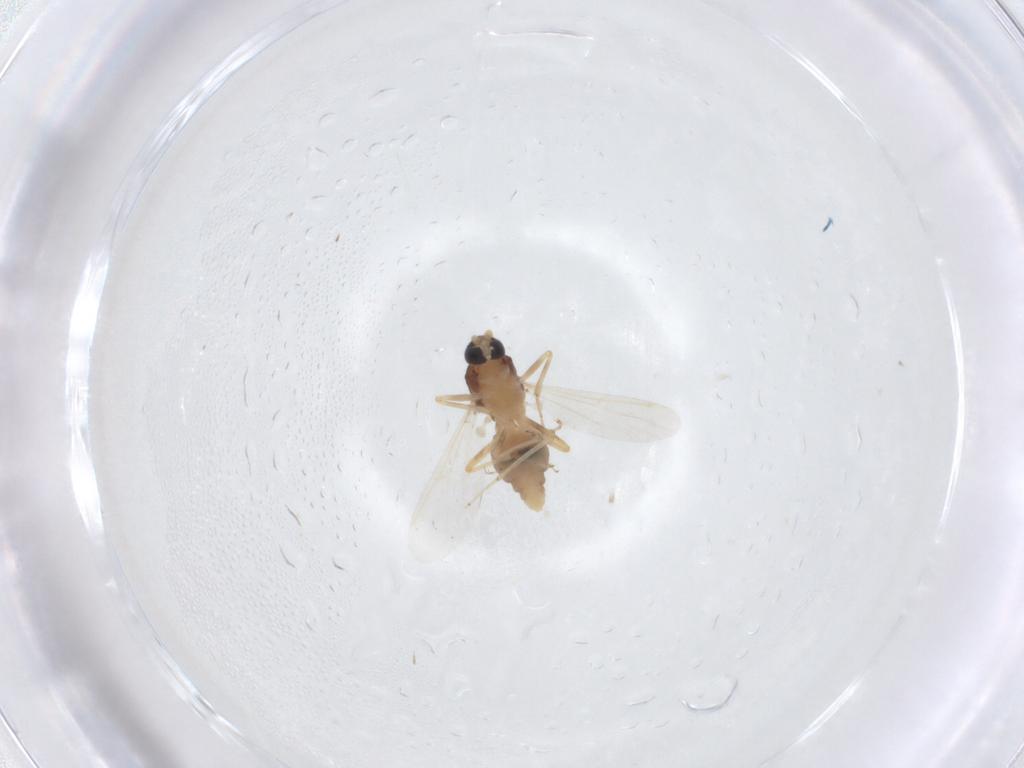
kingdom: Animalia
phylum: Arthropoda
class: Insecta
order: Diptera
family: Ceratopogonidae
